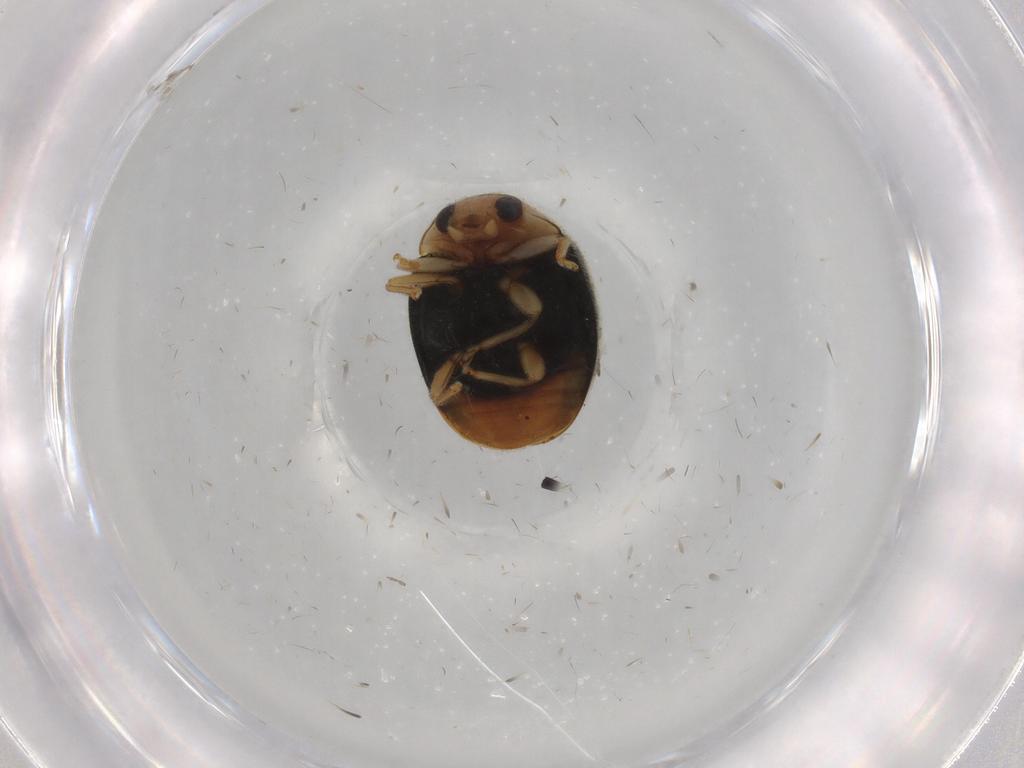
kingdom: Animalia
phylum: Arthropoda
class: Insecta
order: Coleoptera
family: Coccinellidae
